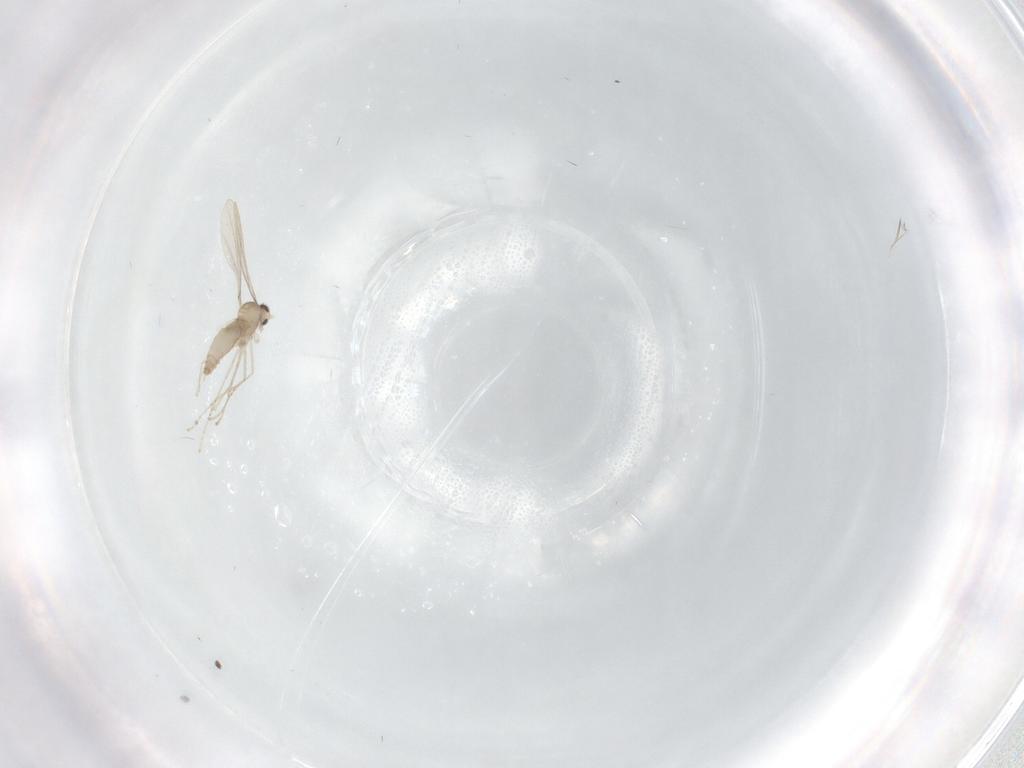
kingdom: Animalia
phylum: Arthropoda
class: Insecta
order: Diptera
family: Cecidomyiidae
